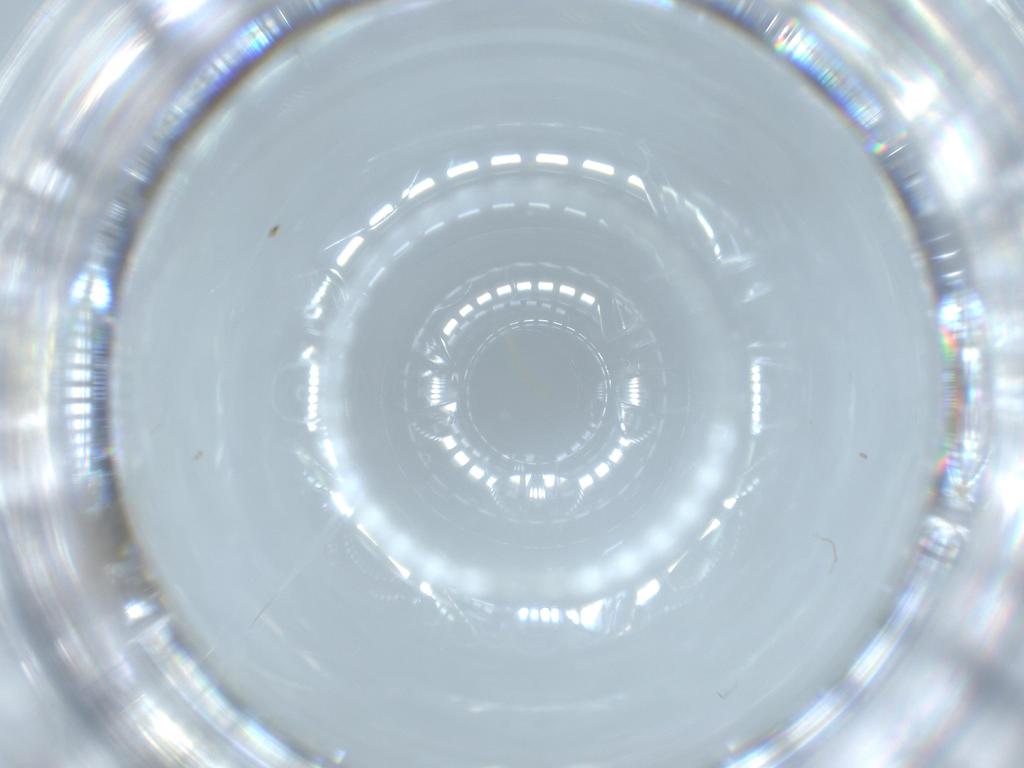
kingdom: Animalia
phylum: Arthropoda
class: Insecta
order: Diptera
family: Cecidomyiidae
